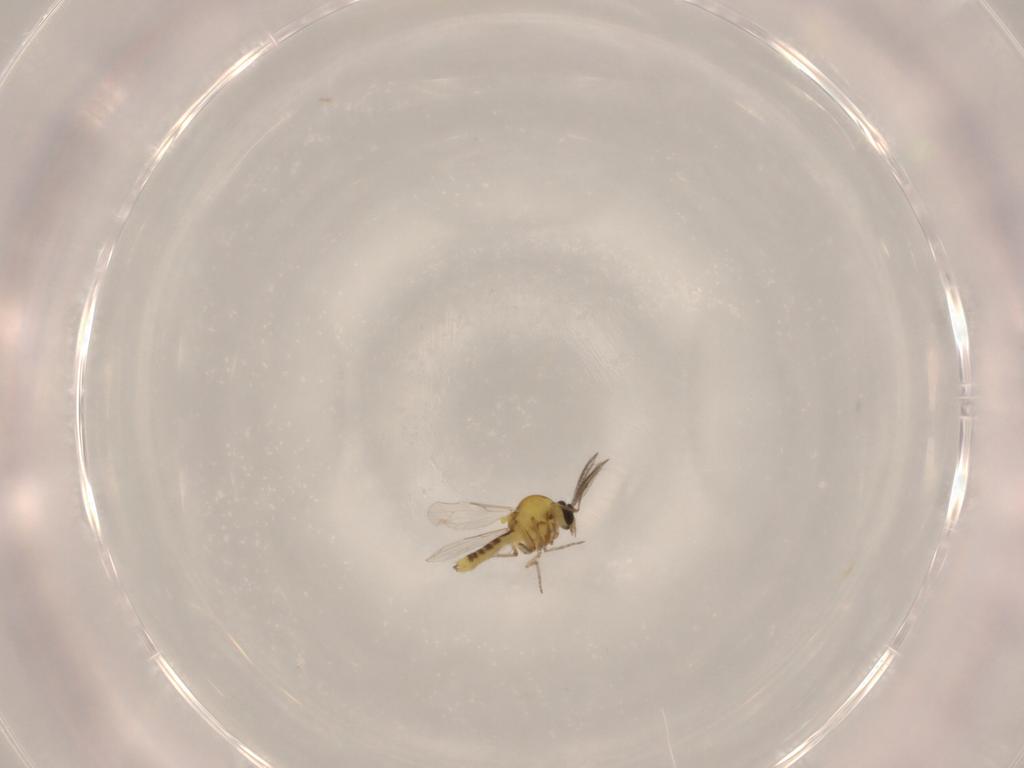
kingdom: Animalia
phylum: Arthropoda
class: Insecta
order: Diptera
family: Ceratopogonidae
